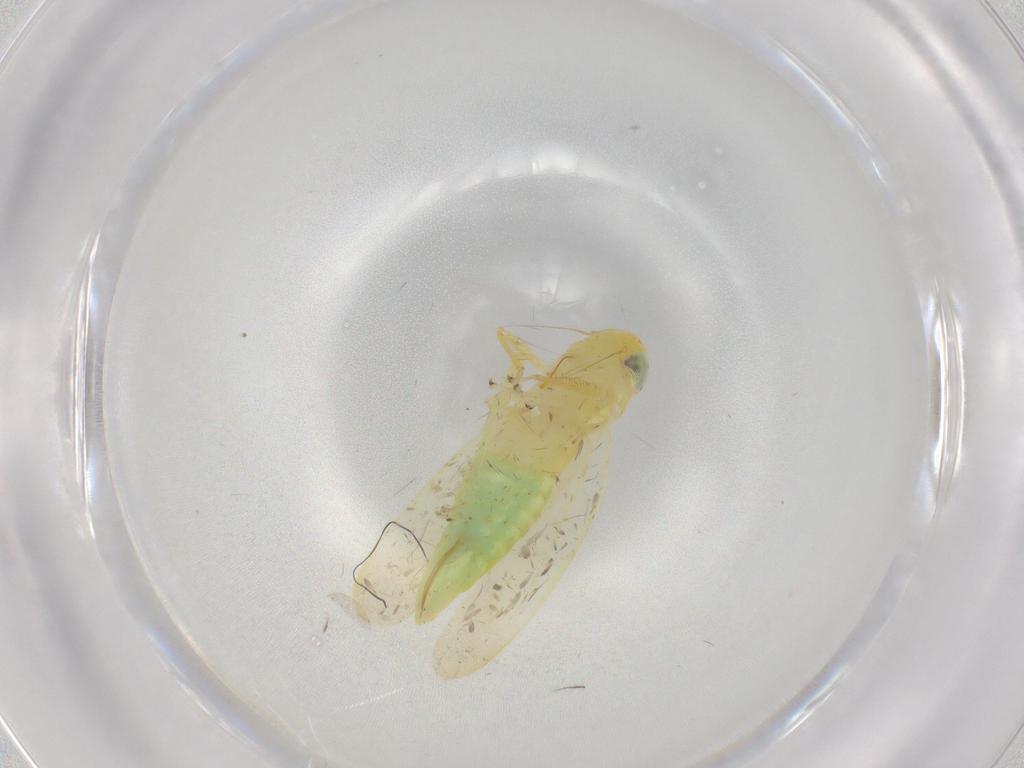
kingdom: Animalia
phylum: Arthropoda
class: Insecta
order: Hemiptera
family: Cicadellidae
